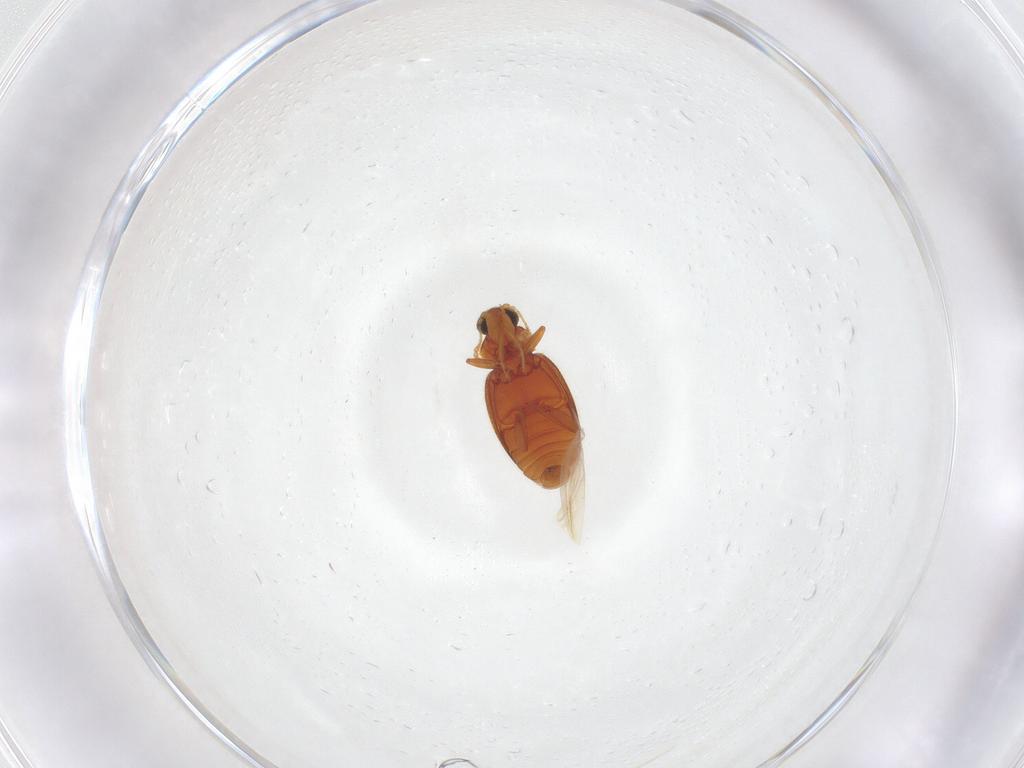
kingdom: Animalia
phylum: Arthropoda
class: Insecta
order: Coleoptera
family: Latridiidae
